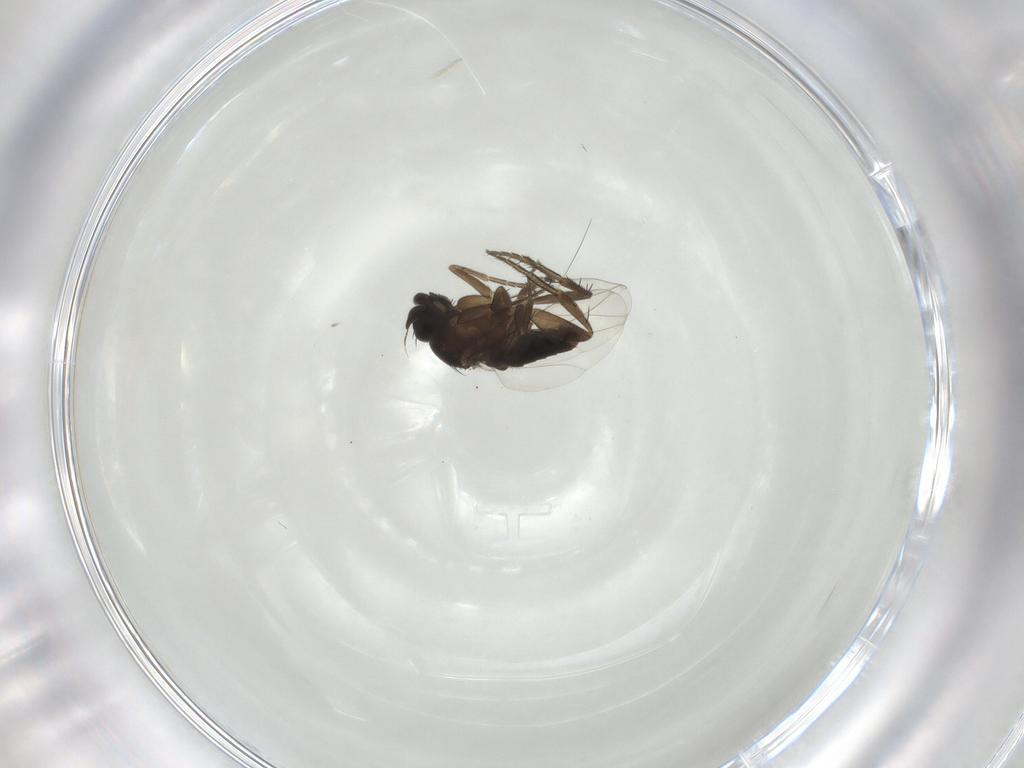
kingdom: Animalia
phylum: Arthropoda
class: Insecta
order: Diptera
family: Phoridae
